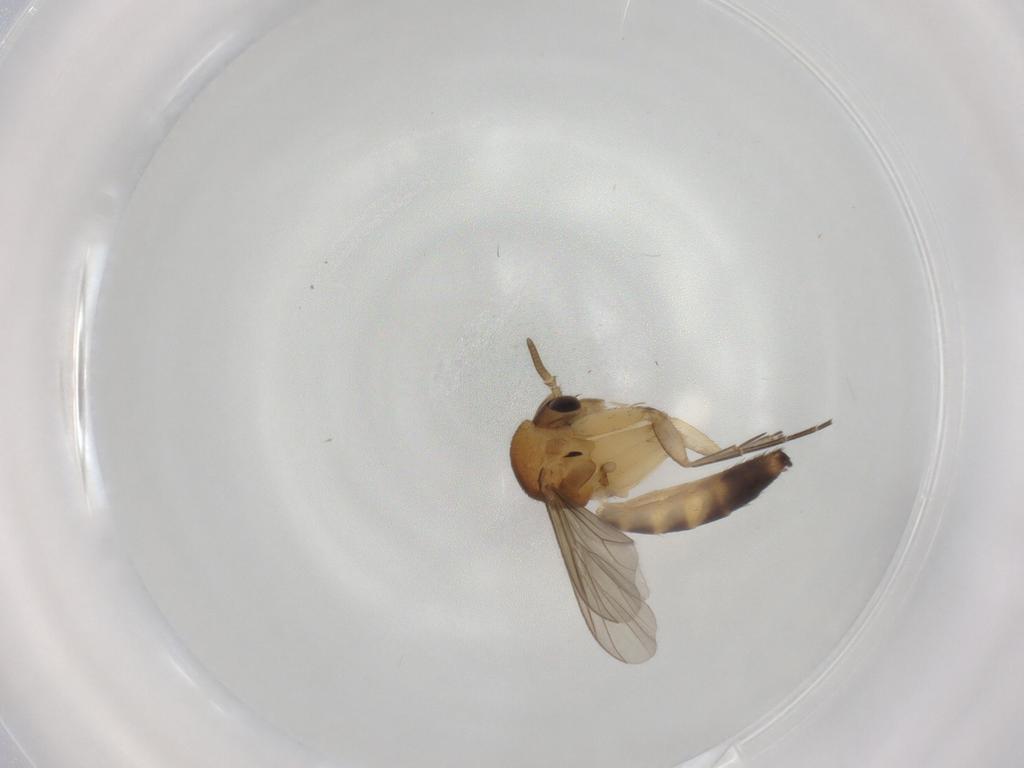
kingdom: Animalia
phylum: Arthropoda
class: Insecta
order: Diptera
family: Mycetophilidae
